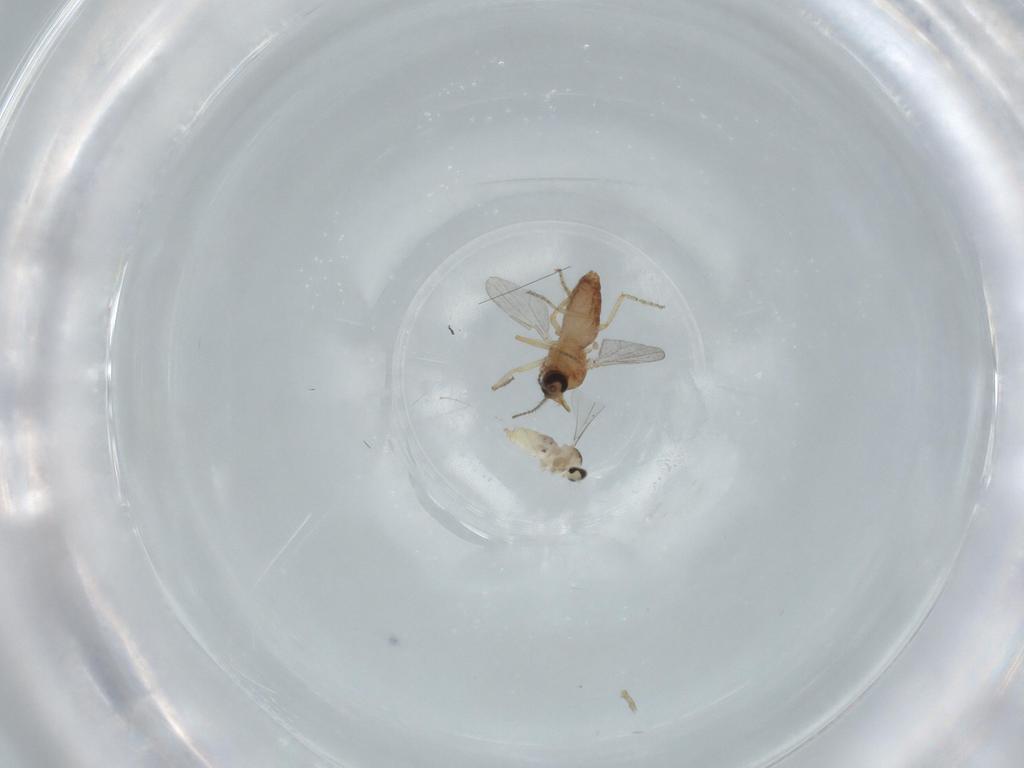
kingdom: Animalia
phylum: Arthropoda
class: Insecta
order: Diptera
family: Ceratopogonidae
